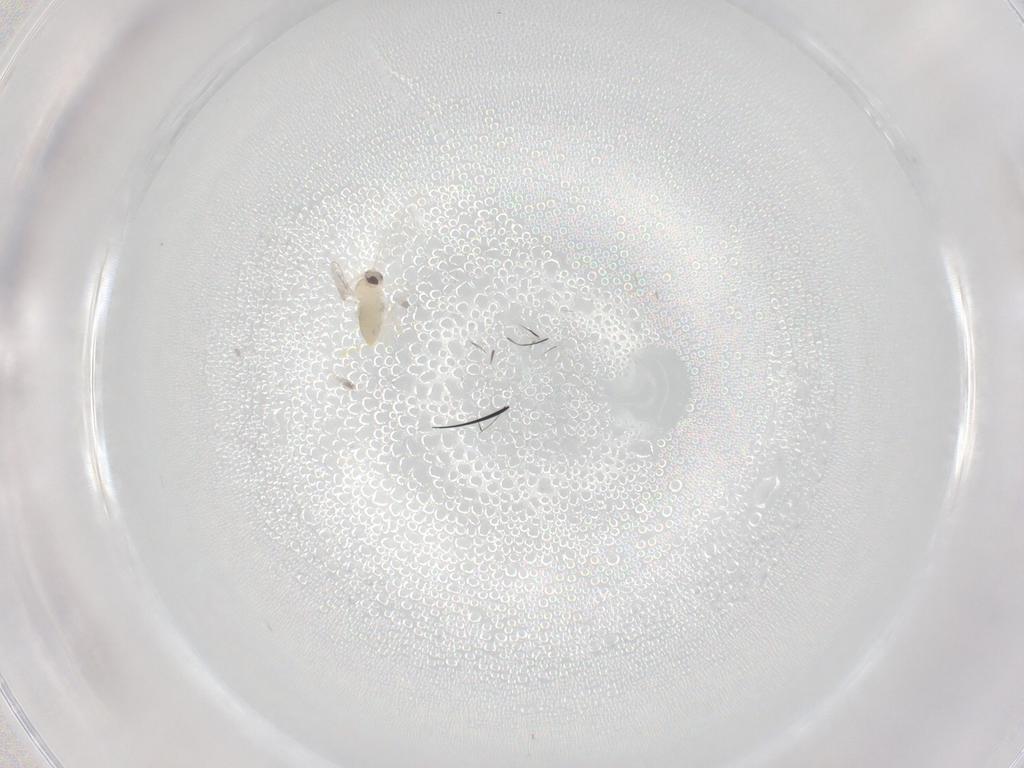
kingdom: Animalia
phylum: Arthropoda
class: Insecta
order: Diptera
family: Cecidomyiidae
